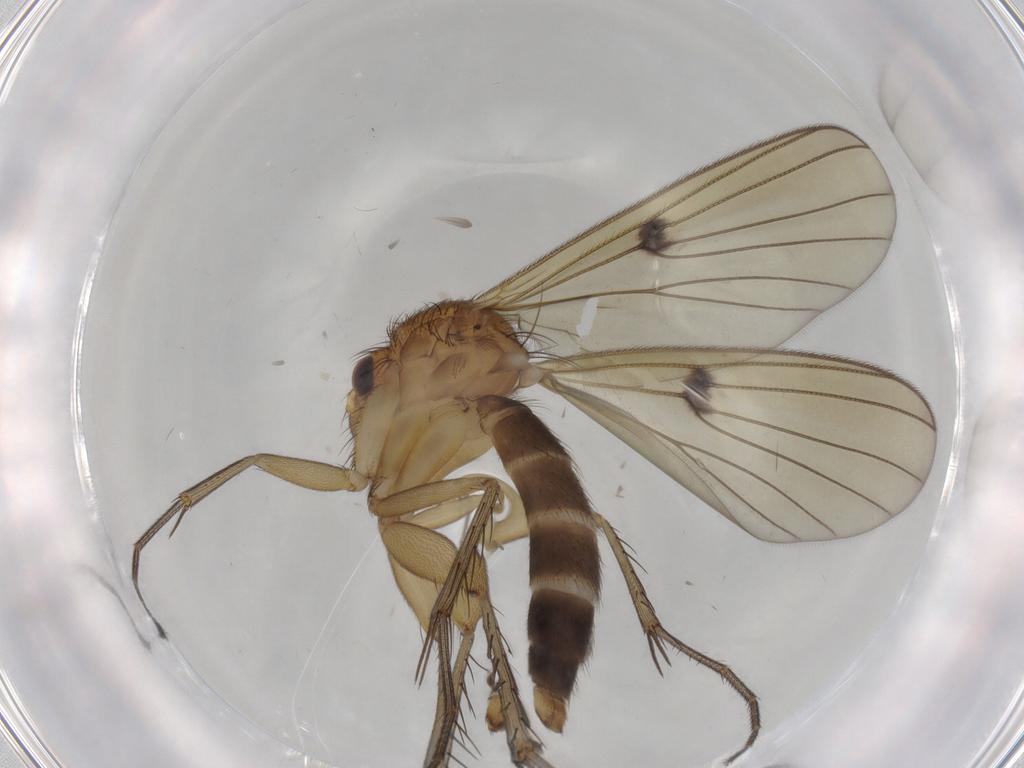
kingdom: Animalia
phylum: Arthropoda
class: Insecta
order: Diptera
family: Mycetophilidae
